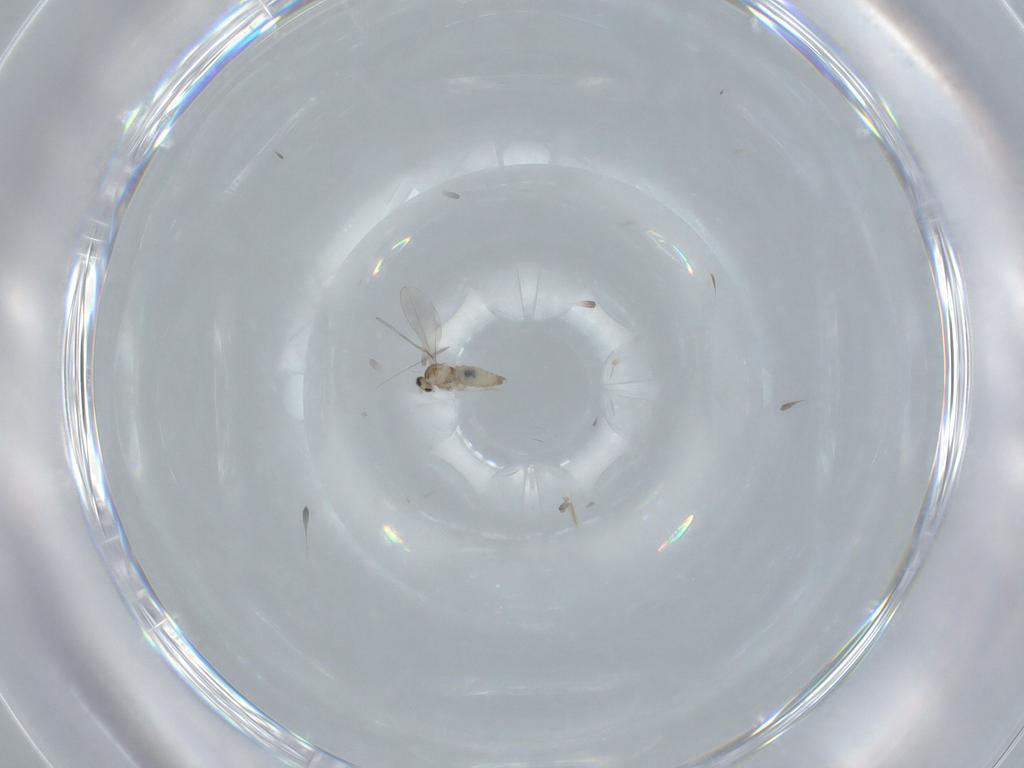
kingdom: Animalia
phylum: Arthropoda
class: Insecta
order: Diptera
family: Cecidomyiidae
